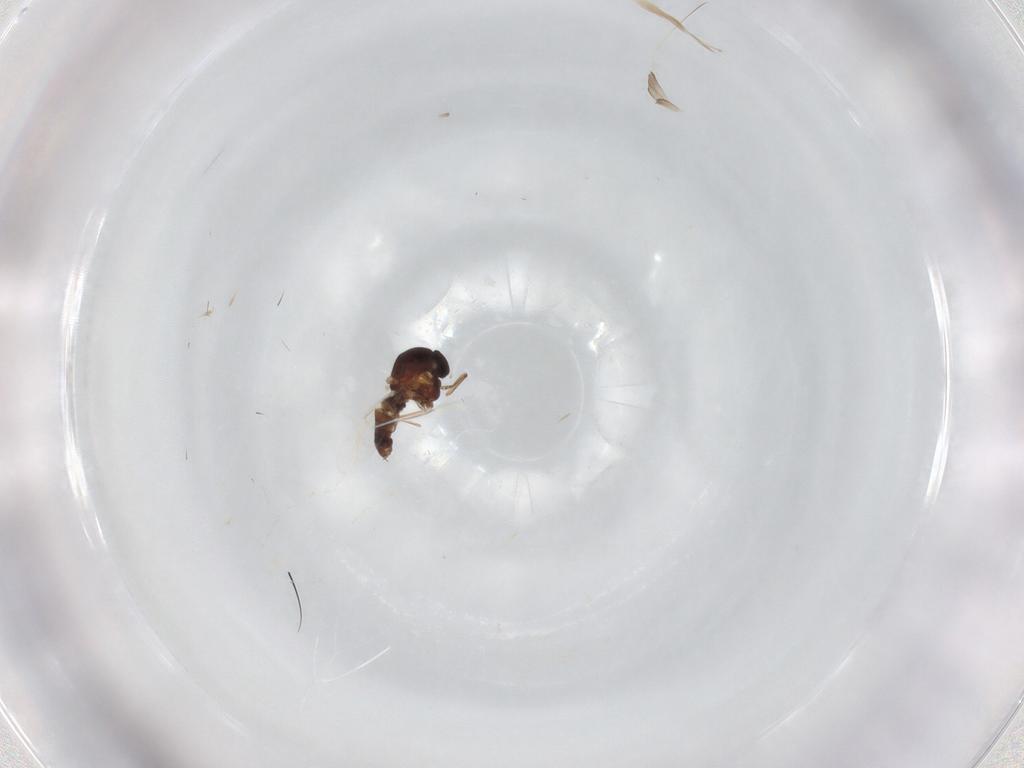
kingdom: Animalia
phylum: Arthropoda
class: Insecta
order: Diptera
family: Ceratopogonidae
